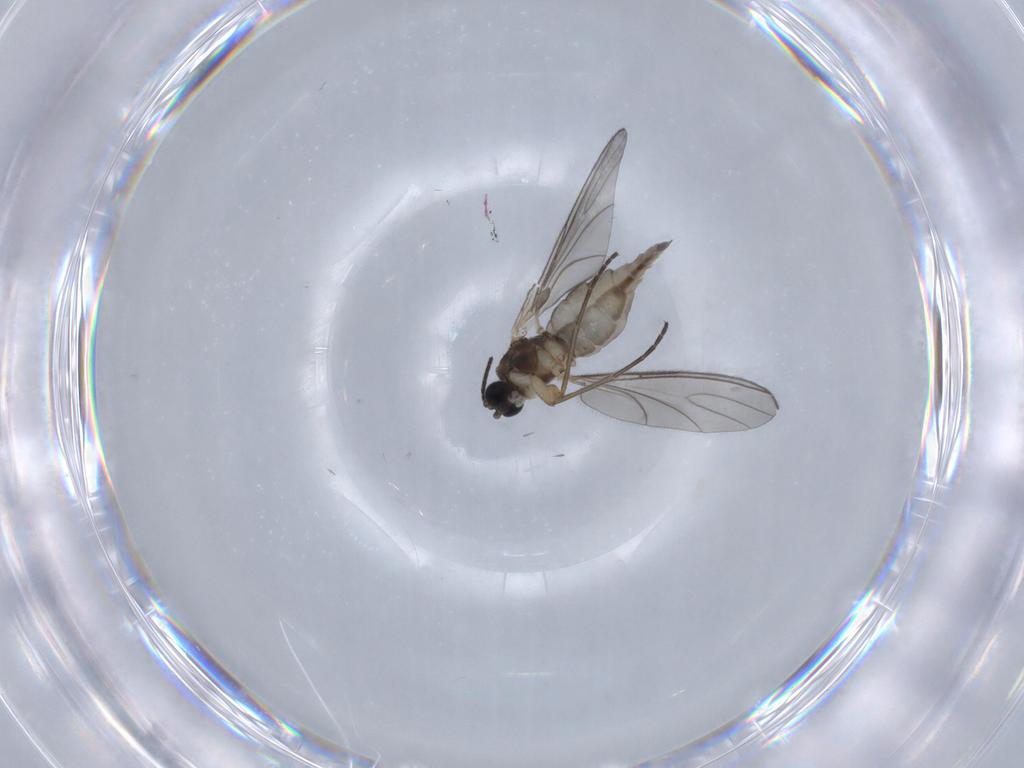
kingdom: Animalia
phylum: Arthropoda
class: Insecta
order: Diptera
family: Sciaridae
